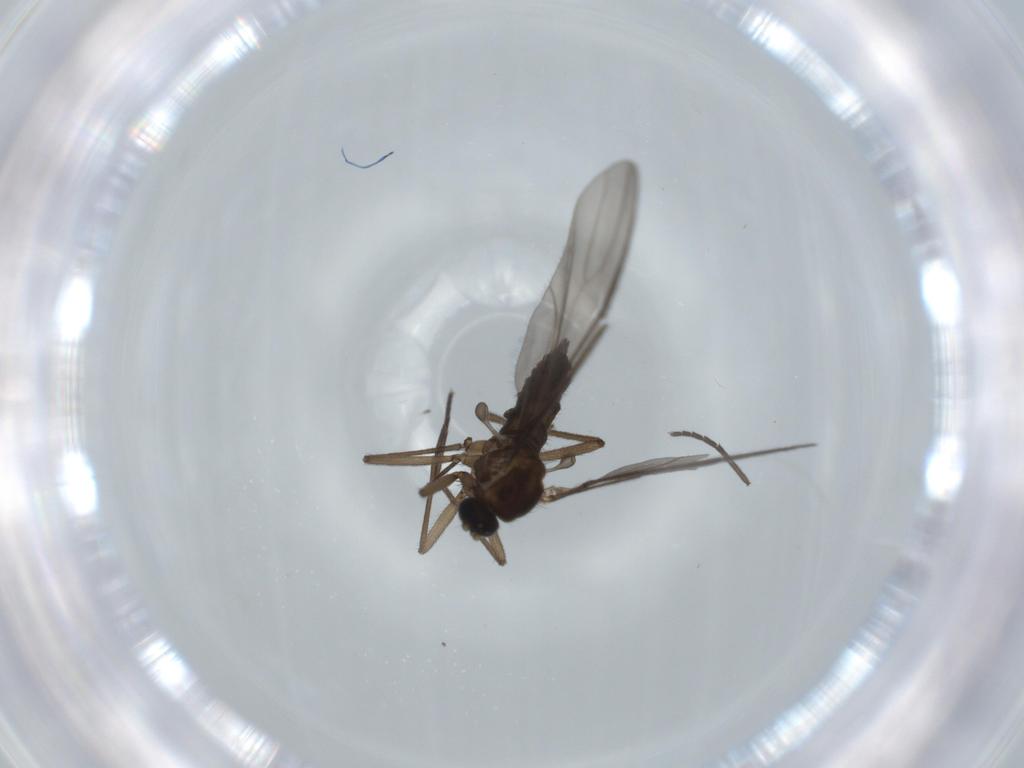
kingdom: Animalia
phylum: Arthropoda
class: Insecta
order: Diptera
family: Sciaridae
